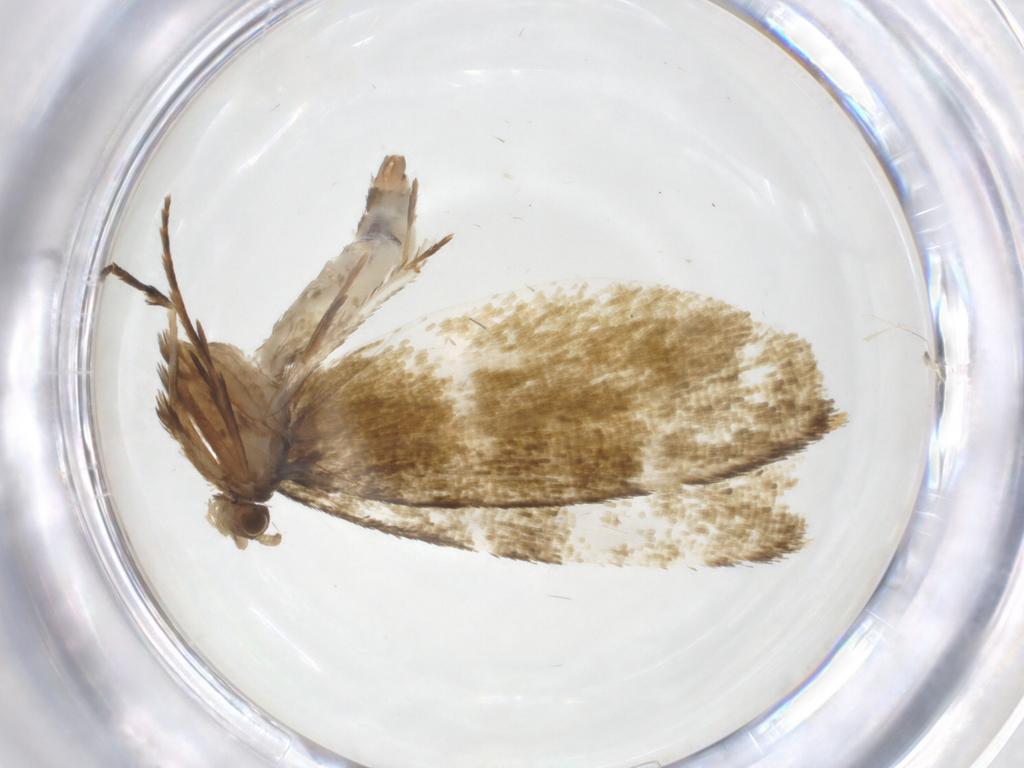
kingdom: Animalia
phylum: Arthropoda
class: Insecta
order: Lepidoptera
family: Tineidae
